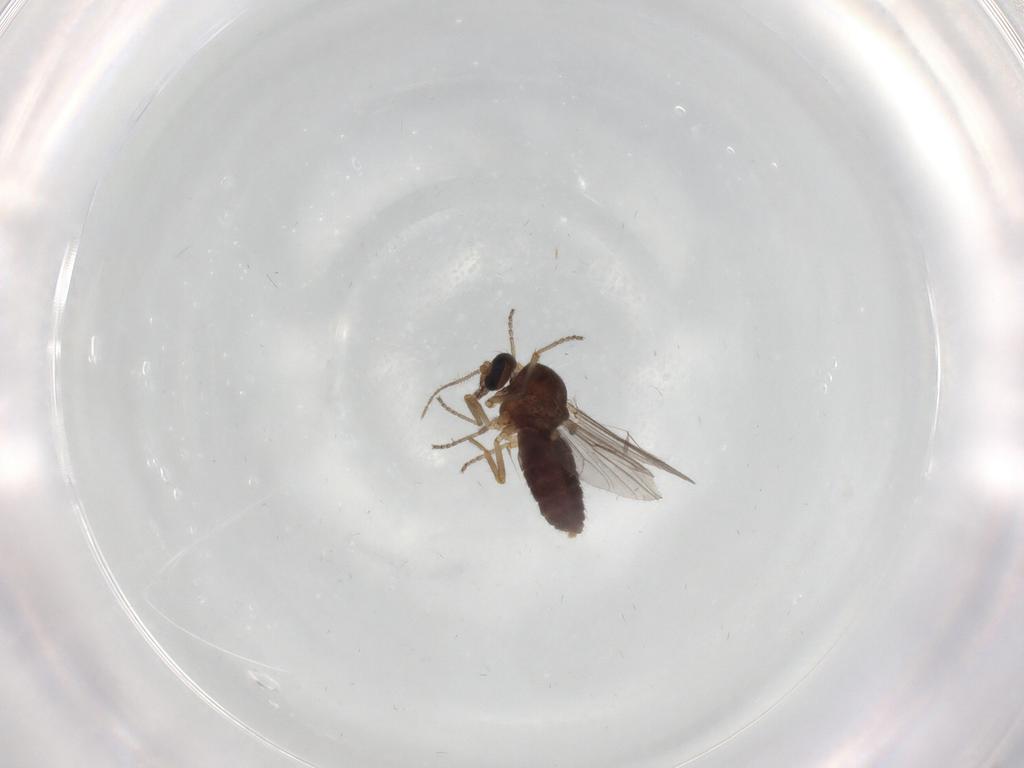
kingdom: Animalia
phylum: Arthropoda
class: Insecta
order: Diptera
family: Ceratopogonidae
